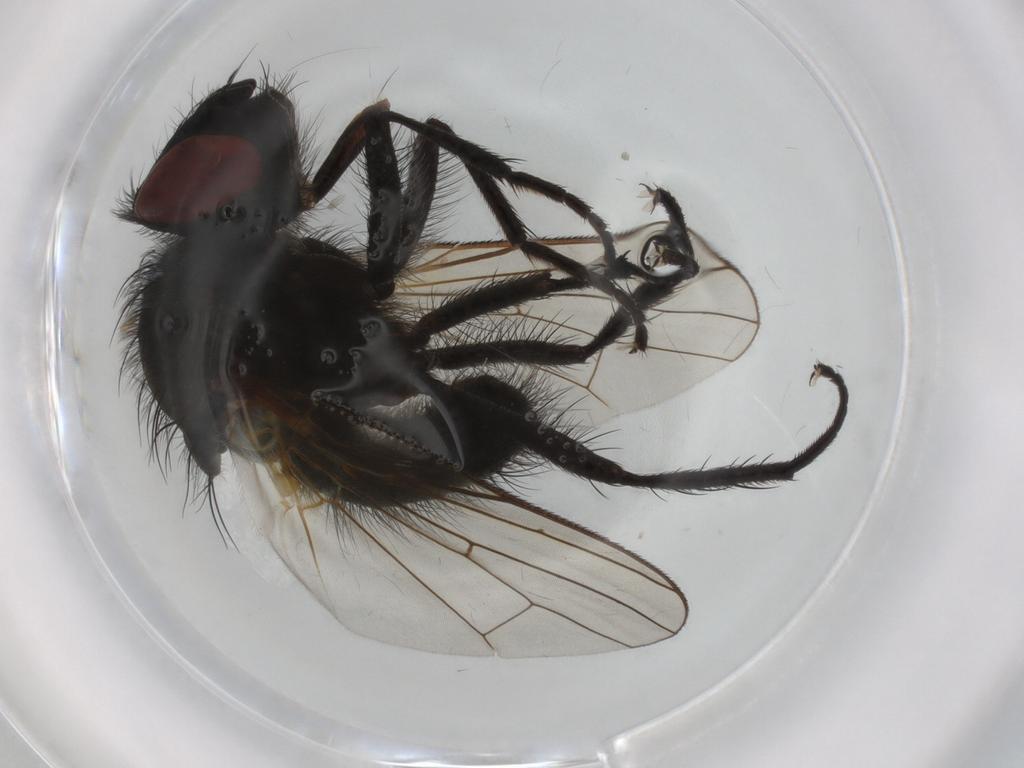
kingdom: Animalia
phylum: Arthropoda
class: Insecta
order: Diptera
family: Anthomyiidae
